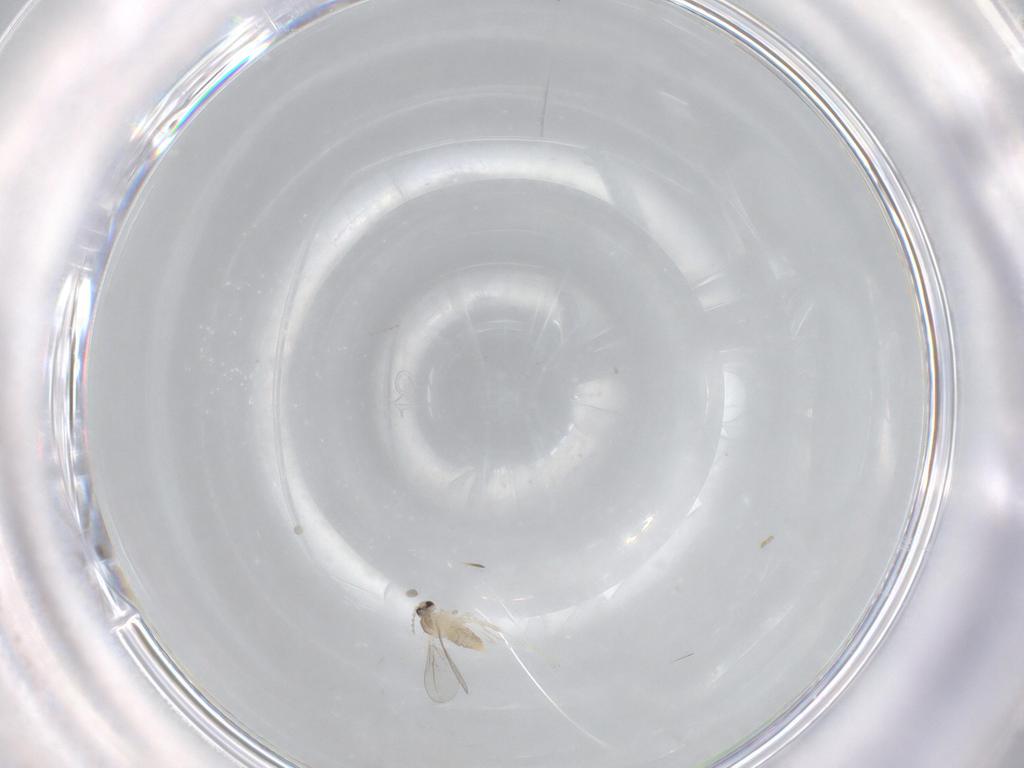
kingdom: Animalia
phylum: Arthropoda
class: Insecta
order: Diptera
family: Cecidomyiidae
